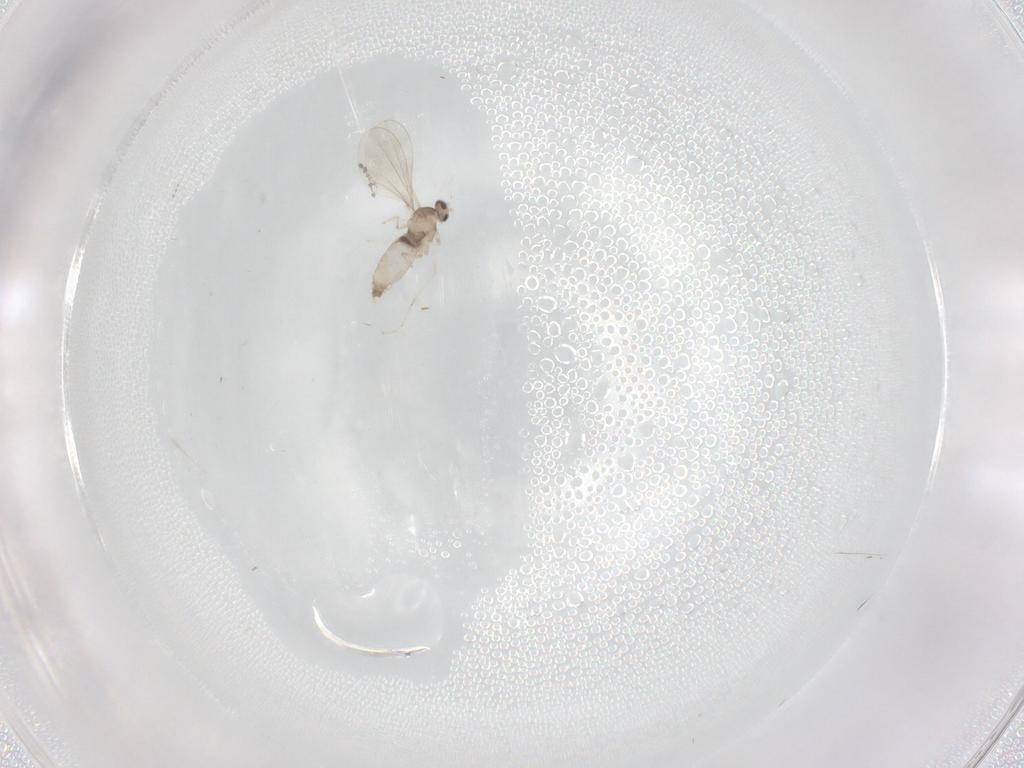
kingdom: Animalia
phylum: Arthropoda
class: Insecta
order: Diptera
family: Cecidomyiidae
